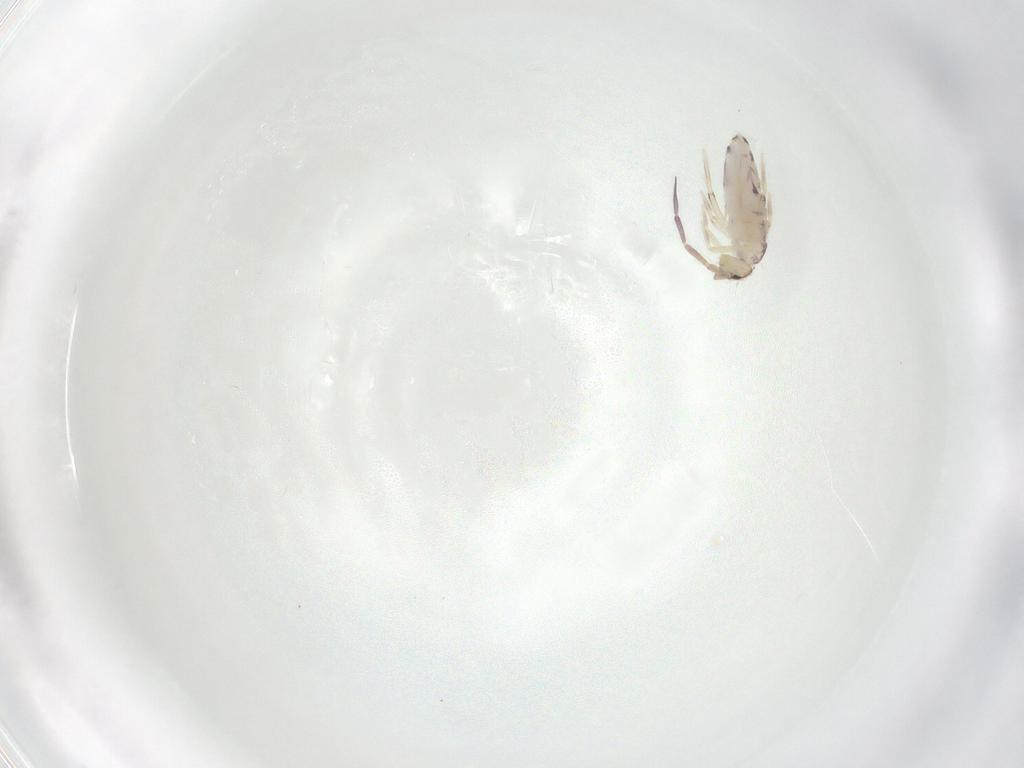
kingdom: Animalia
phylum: Arthropoda
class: Collembola
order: Entomobryomorpha
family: Entomobryidae
